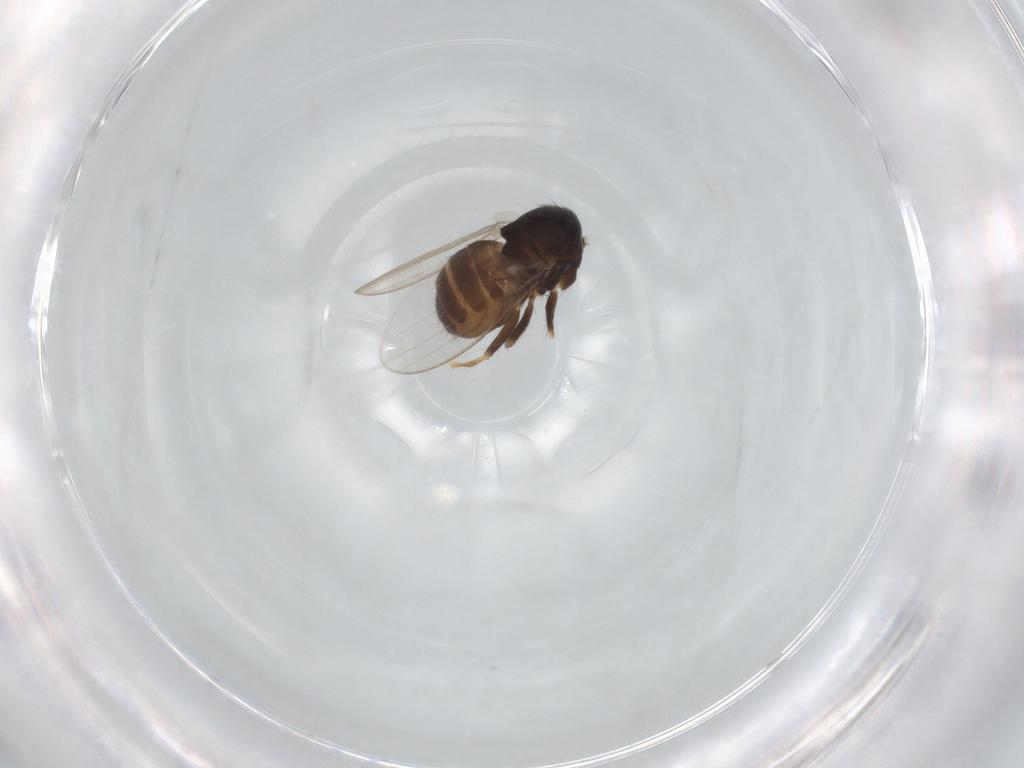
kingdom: Animalia
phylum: Arthropoda
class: Insecta
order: Diptera
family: Milichiidae
